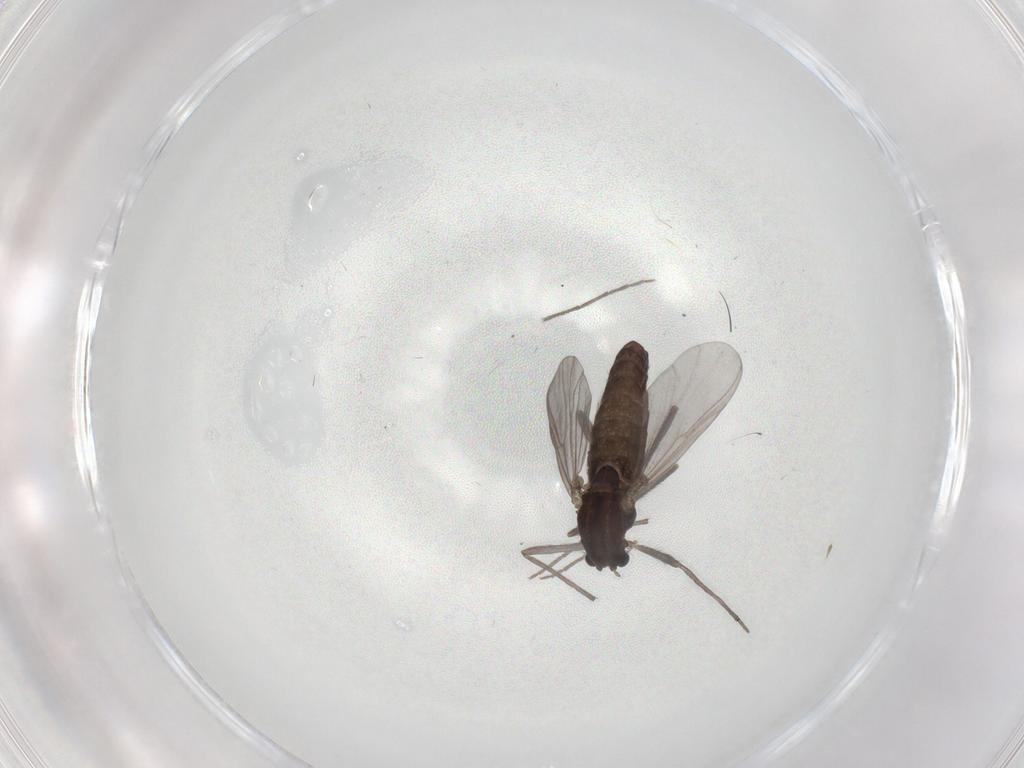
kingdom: Animalia
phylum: Arthropoda
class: Insecta
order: Diptera
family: Chironomidae
